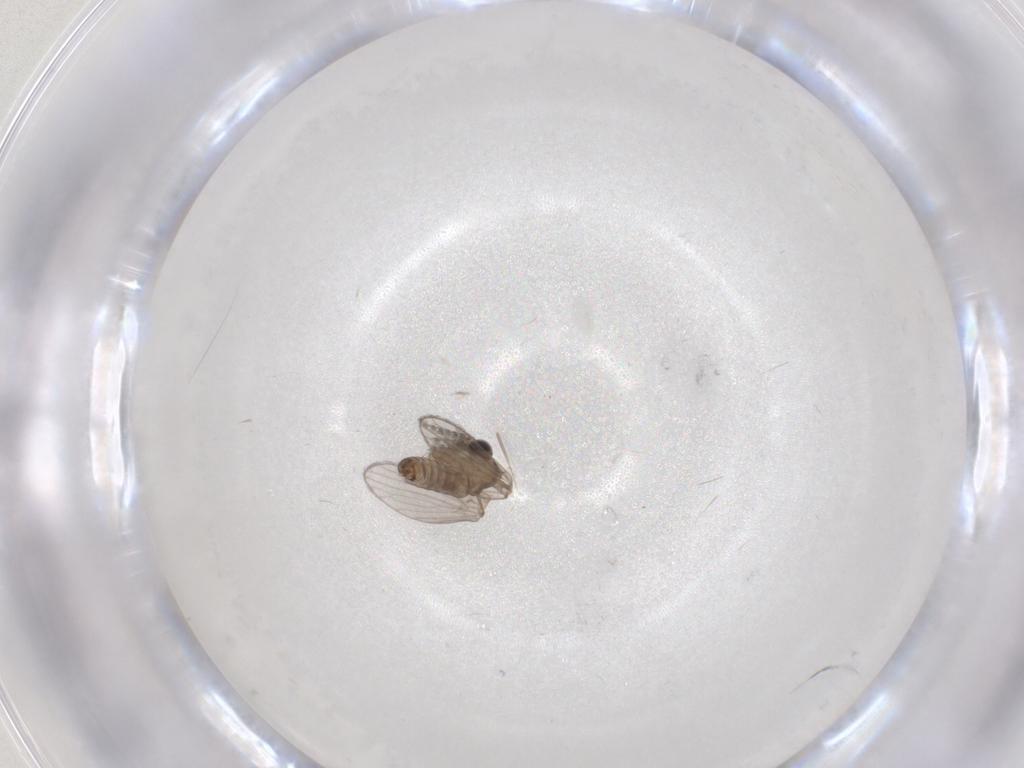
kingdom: Animalia
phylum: Arthropoda
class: Insecta
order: Diptera
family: Psychodidae
